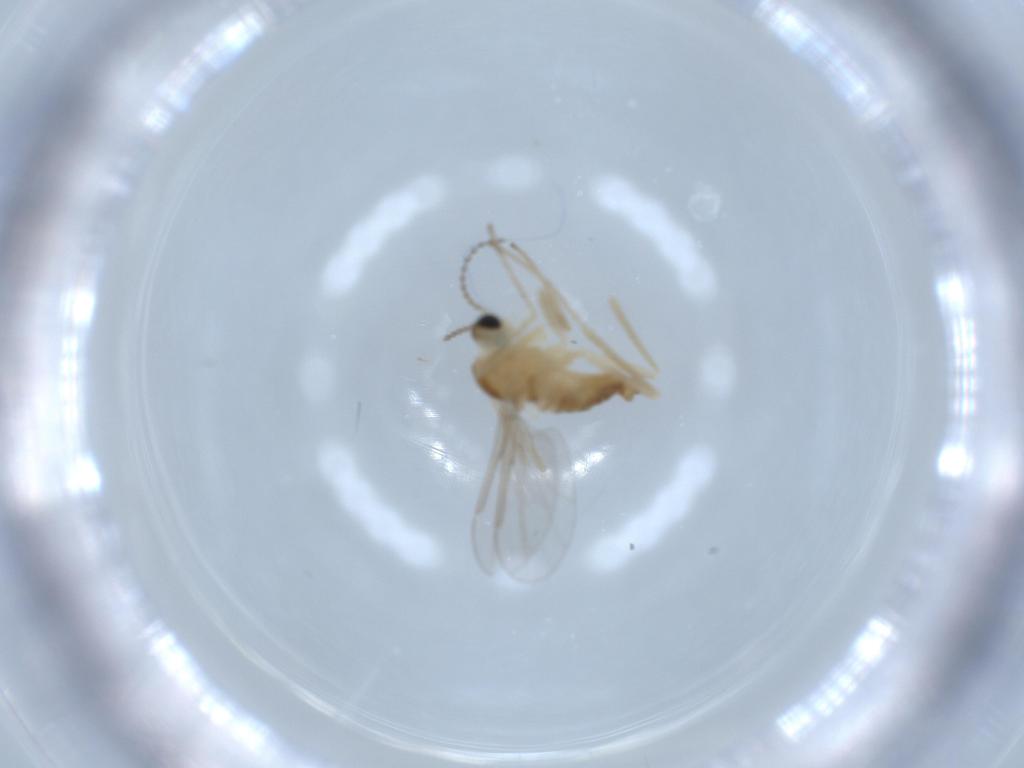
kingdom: Animalia
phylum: Arthropoda
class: Insecta
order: Diptera
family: Cecidomyiidae
